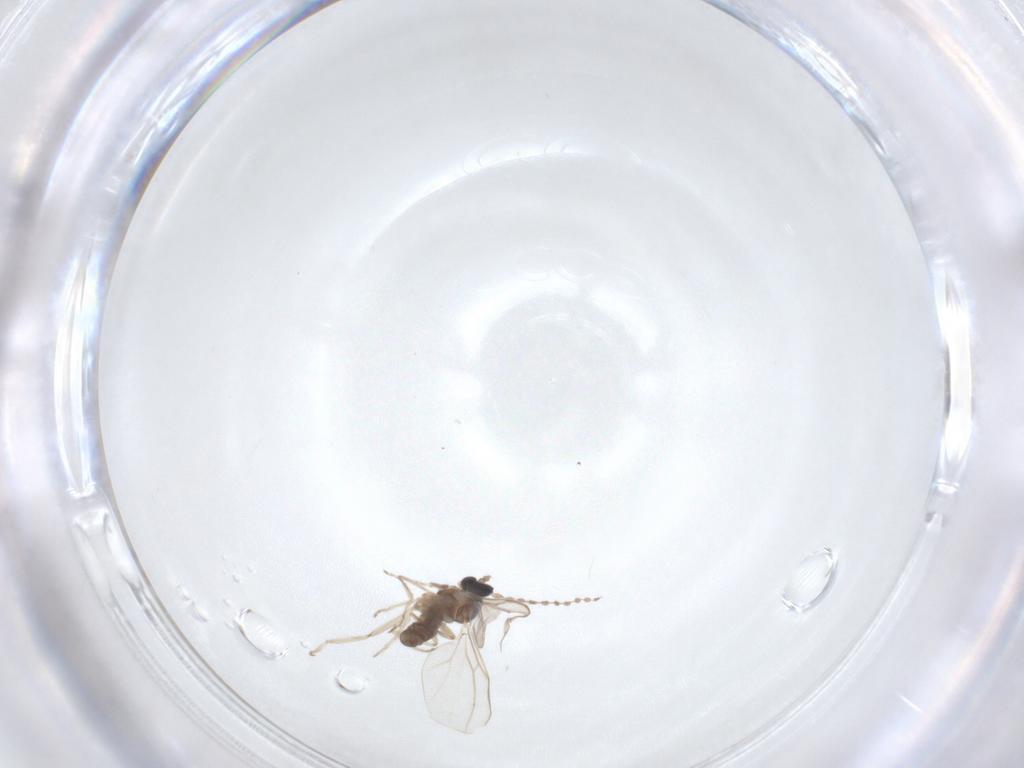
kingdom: Animalia
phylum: Arthropoda
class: Insecta
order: Diptera
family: Cecidomyiidae
